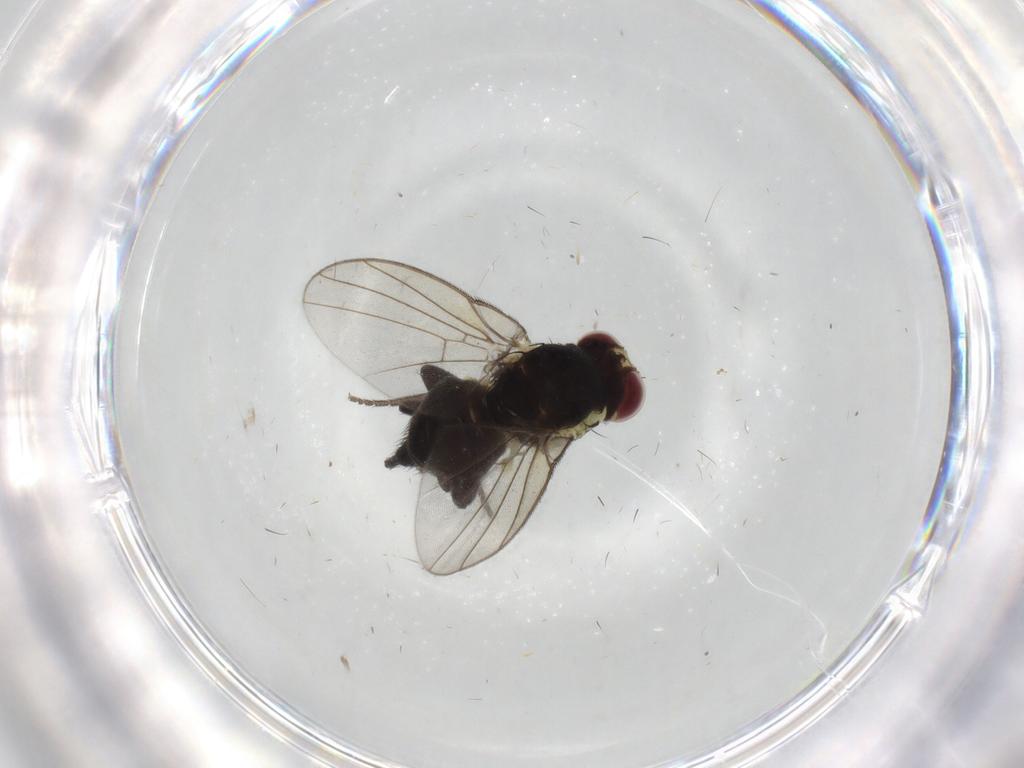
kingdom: Animalia
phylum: Arthropoda
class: Insecta
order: Diptera
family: Agromyzidae
